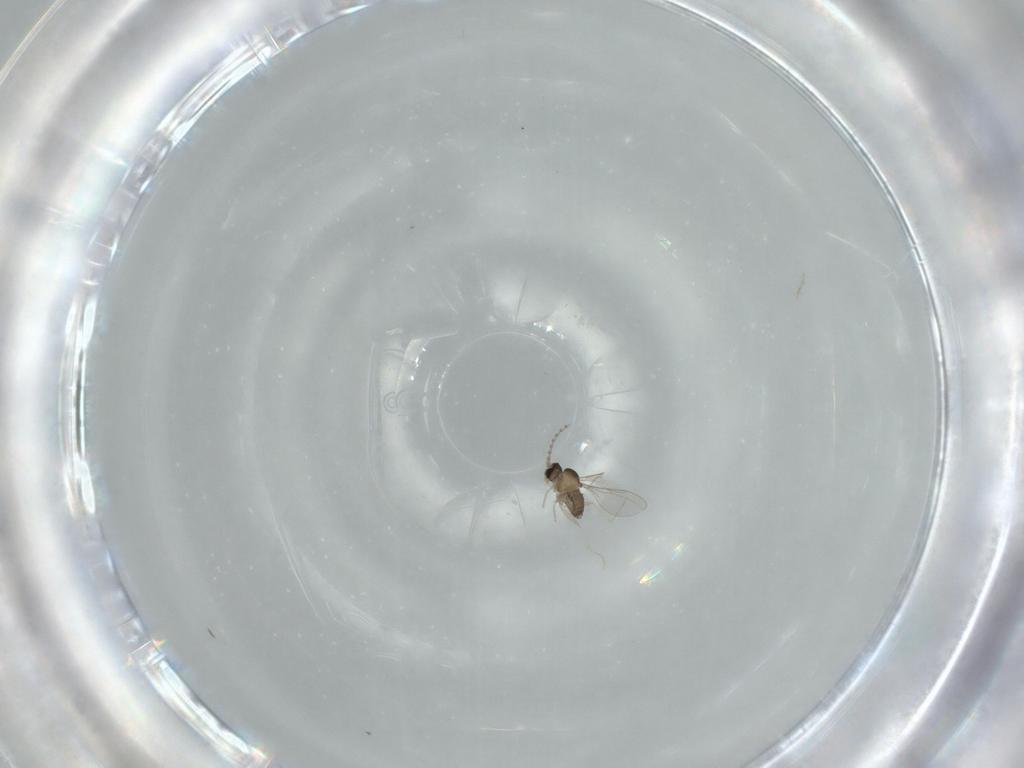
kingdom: Animalia
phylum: Arthropoda
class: Insecta
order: Diptera
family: Cecidomyiidae
